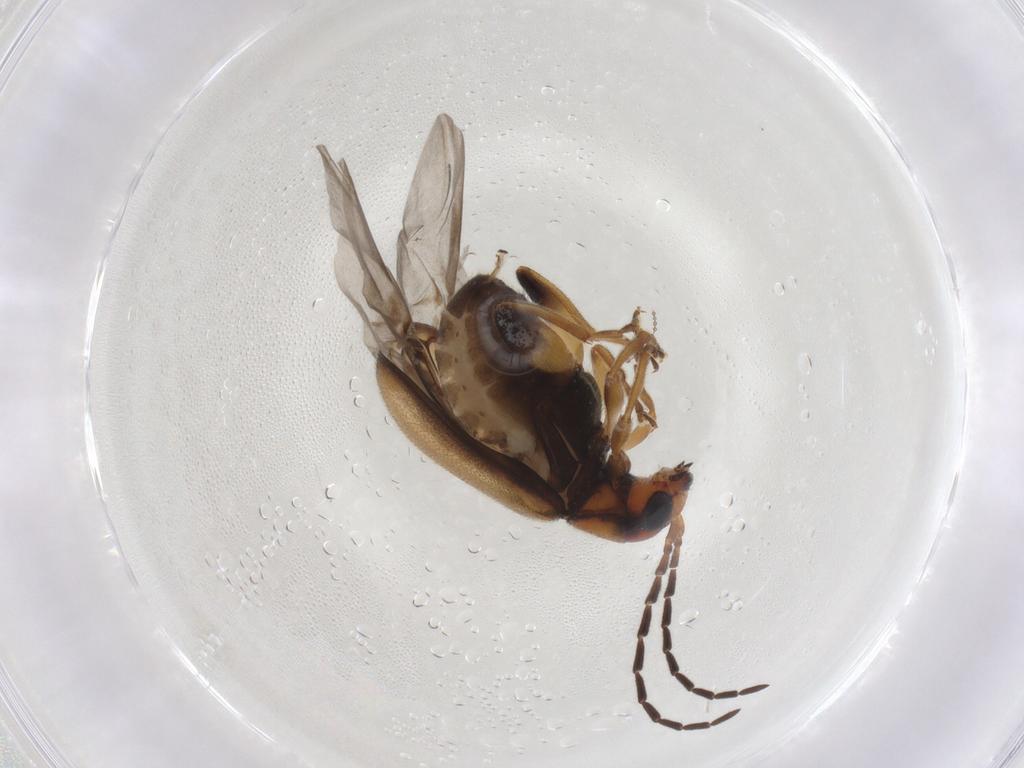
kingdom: Animalia
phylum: Arthropoda
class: Insecta
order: Coleoptera
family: Chrysomelidae
